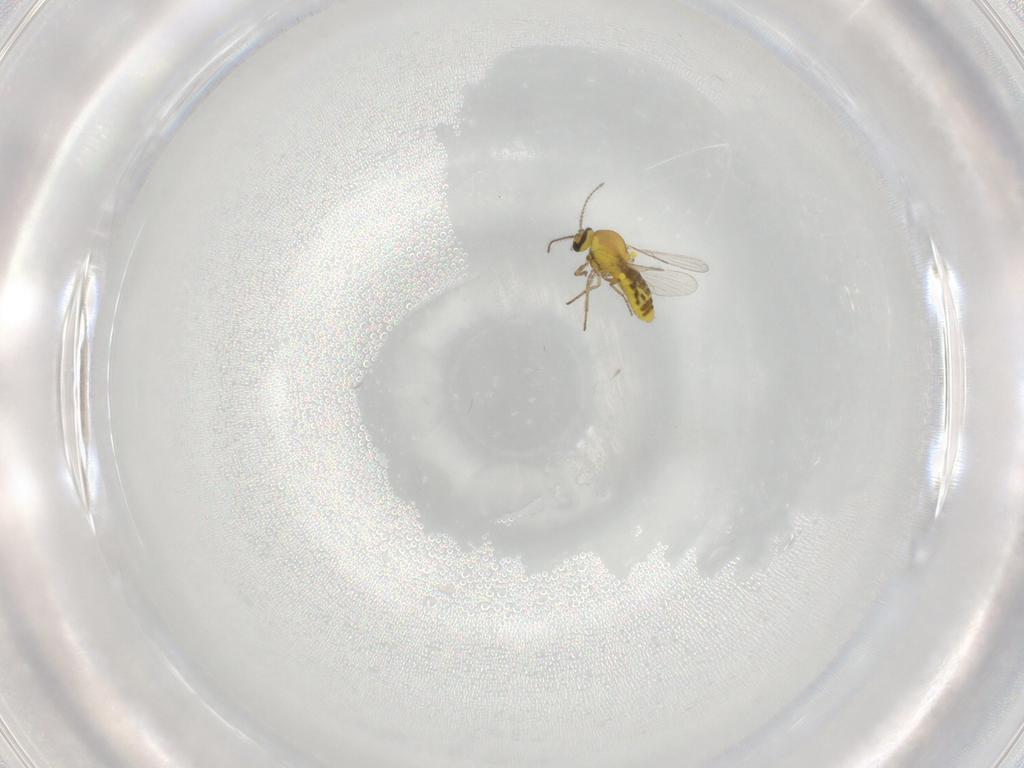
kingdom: Animalia
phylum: Arthropoda
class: Insecta
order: Diptera
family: Ceratopogonidae
